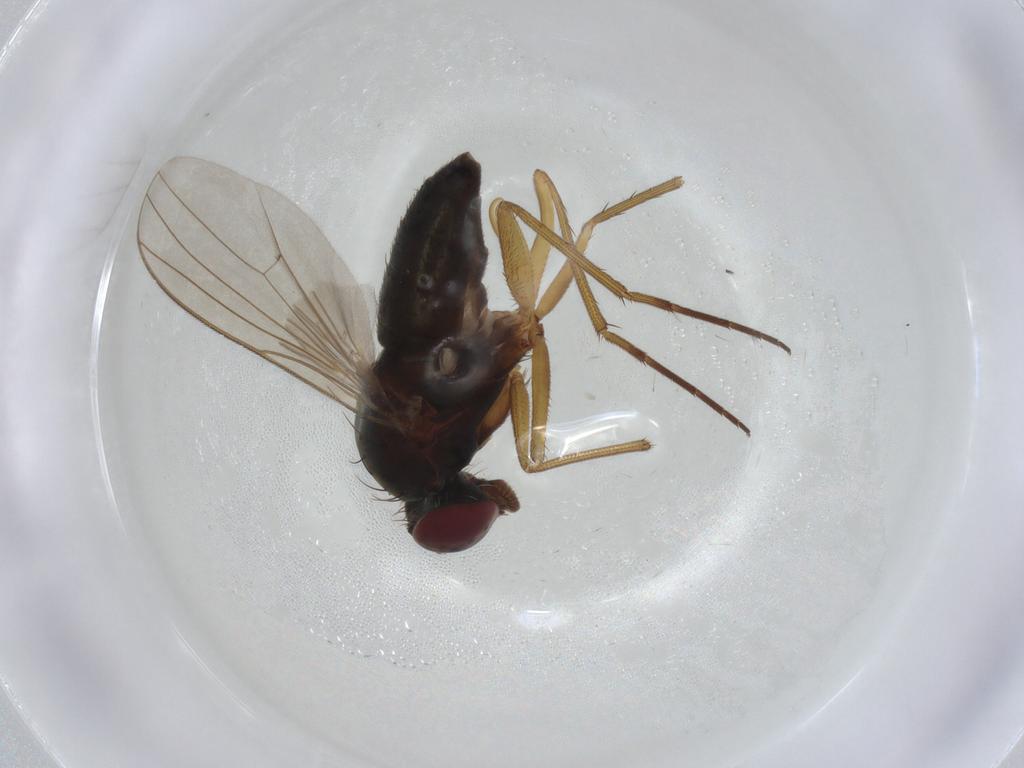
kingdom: Animalia
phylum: Arthropoda
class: Insecta
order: Diptera
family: Dolichopodidae
